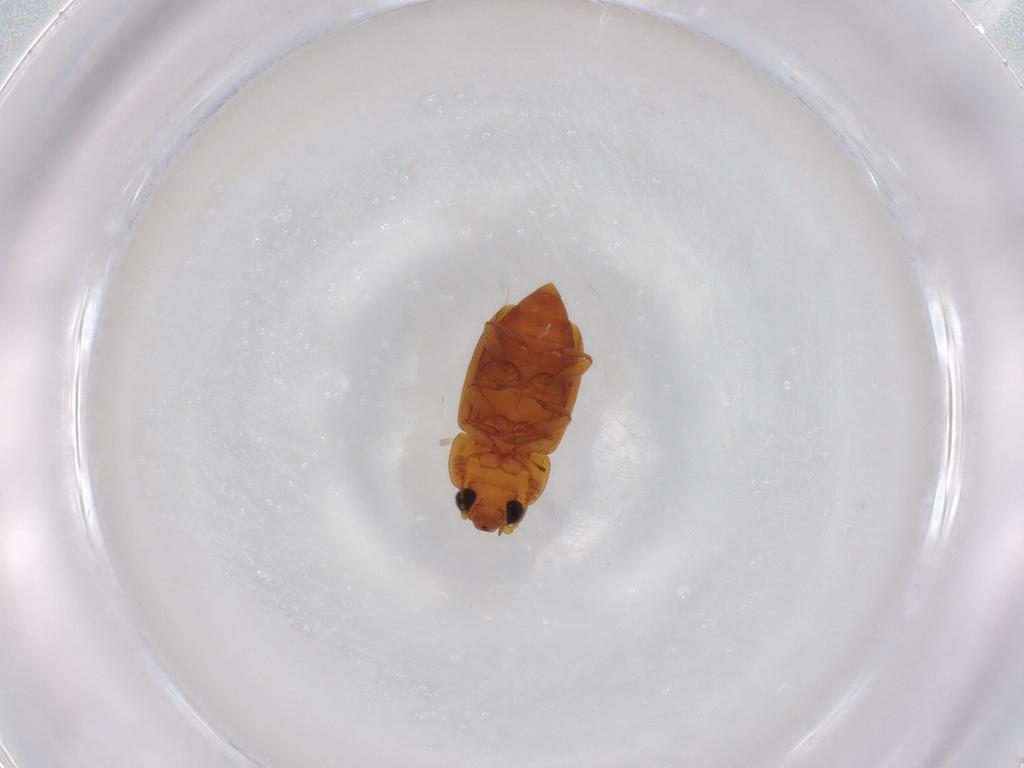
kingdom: Animalia
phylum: Arthropoda
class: Insecta
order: Coleoptera
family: Nitidulidae
